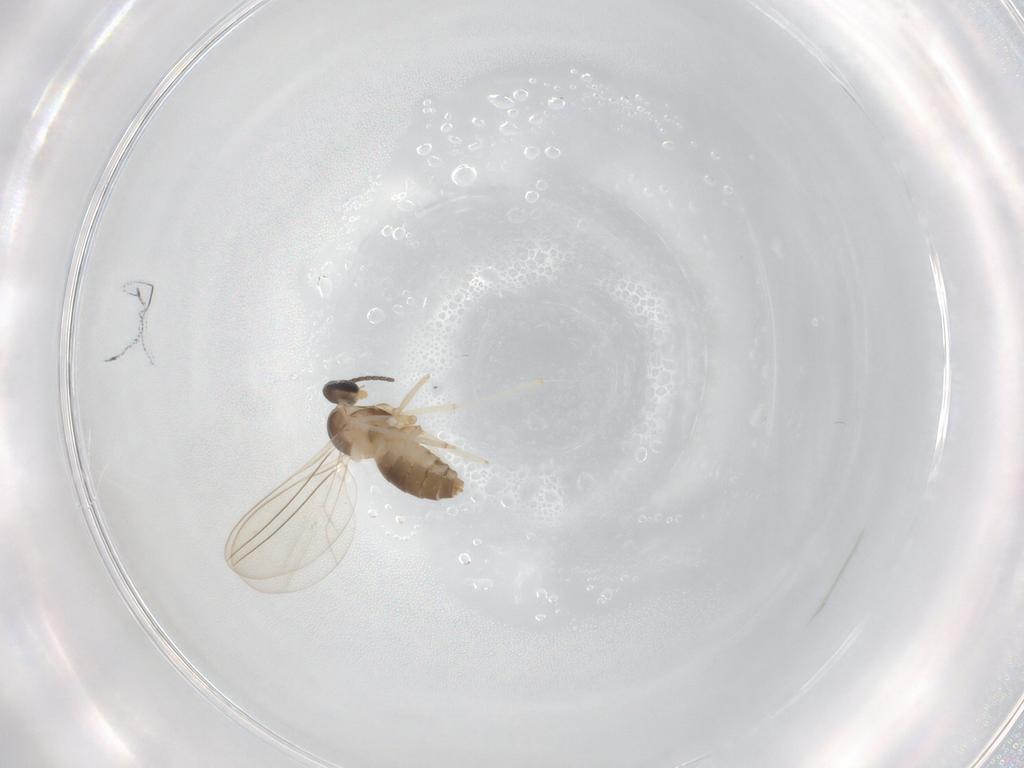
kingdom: Animalia
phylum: Arthropoda
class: Insecta
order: Diptera
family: Cecidomyiidae
